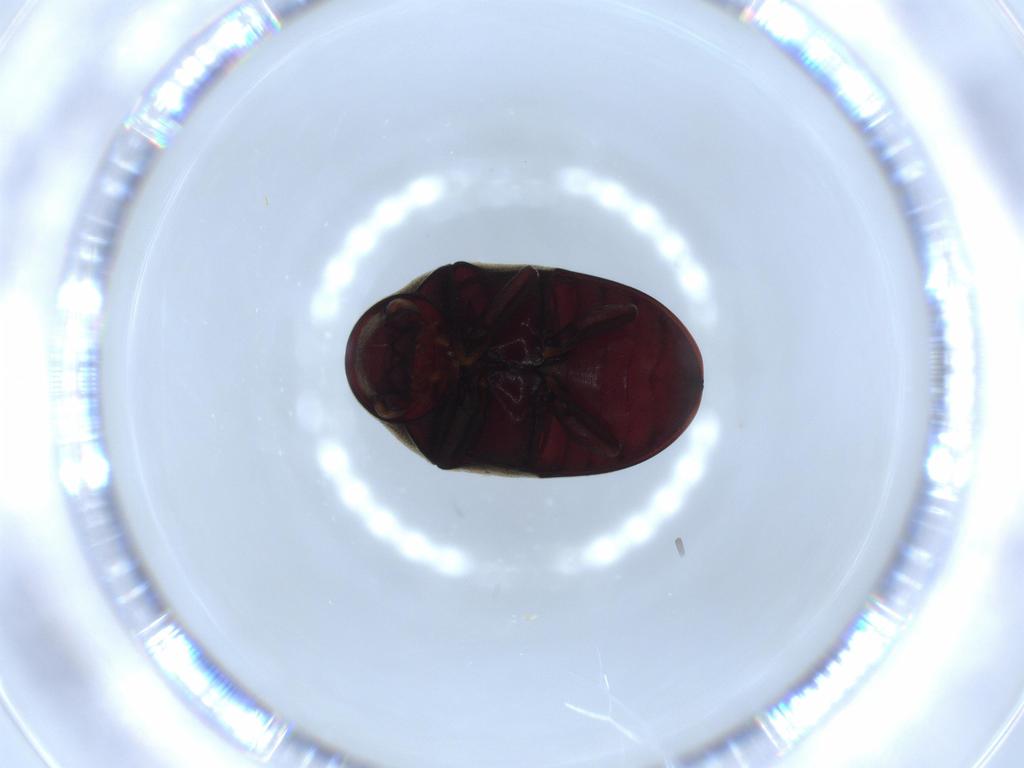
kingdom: Animalia
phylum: Arthropoda
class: Insecta
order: Coleoptera
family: Ptinidae
